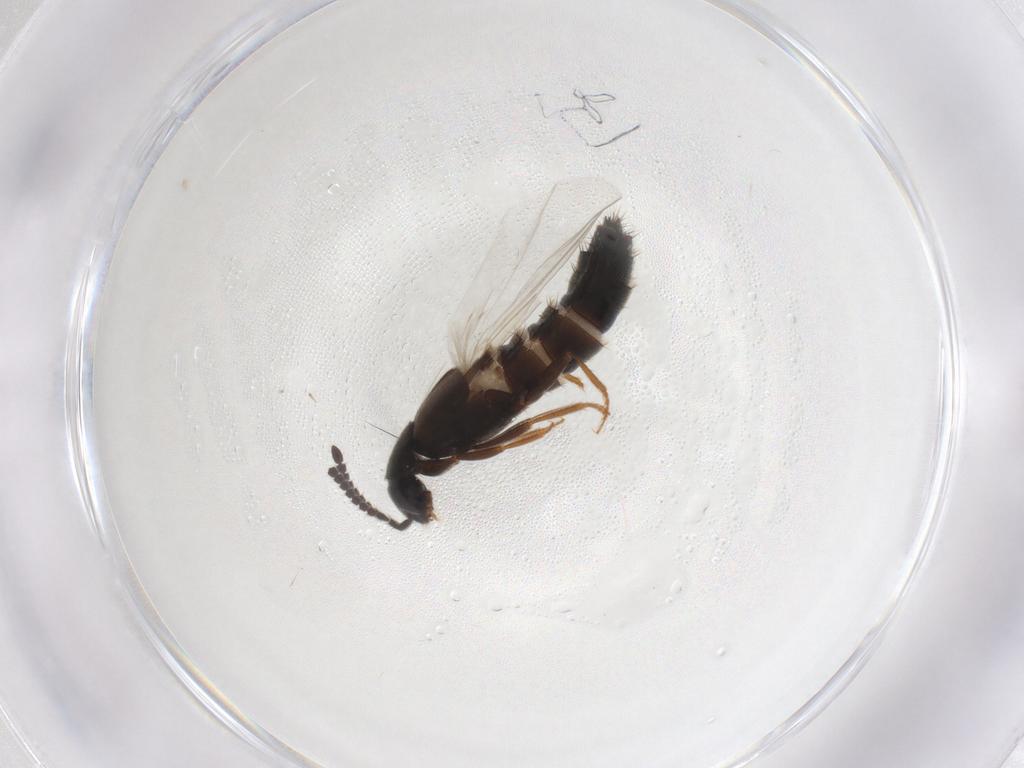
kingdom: Animalia
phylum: Arthropoda
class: Insecta
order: Coleoptera
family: Staphylinidae
